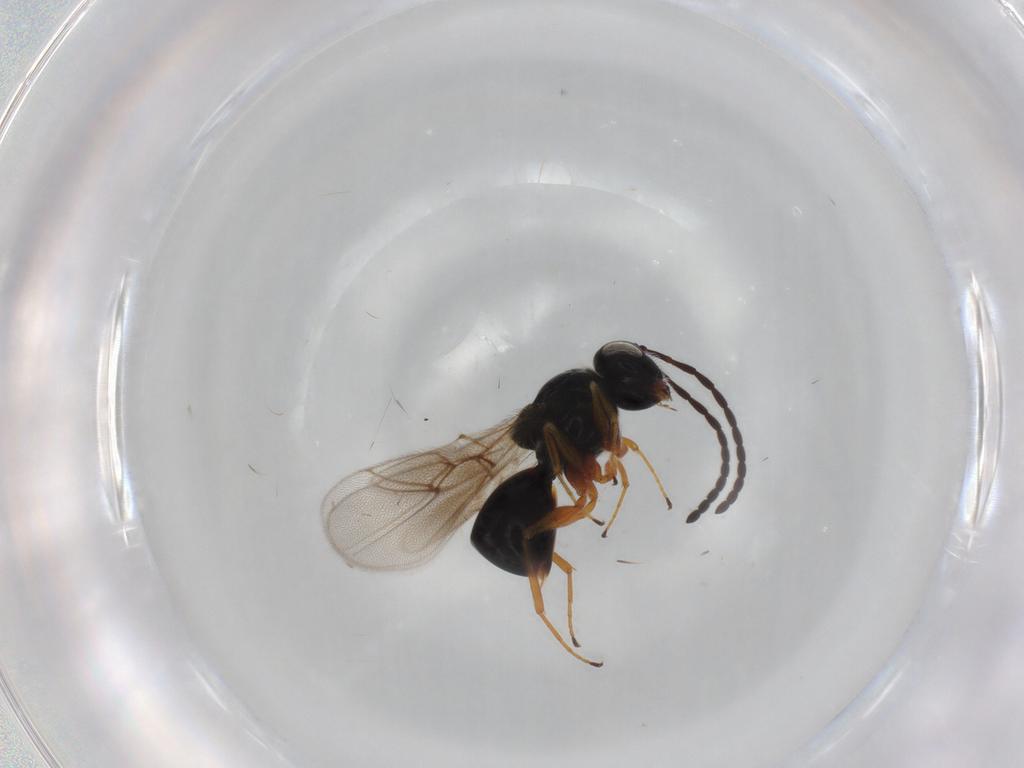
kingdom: Animalia
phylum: Arthropoda
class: Insecta
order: Hymenoptera
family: Figitidae
